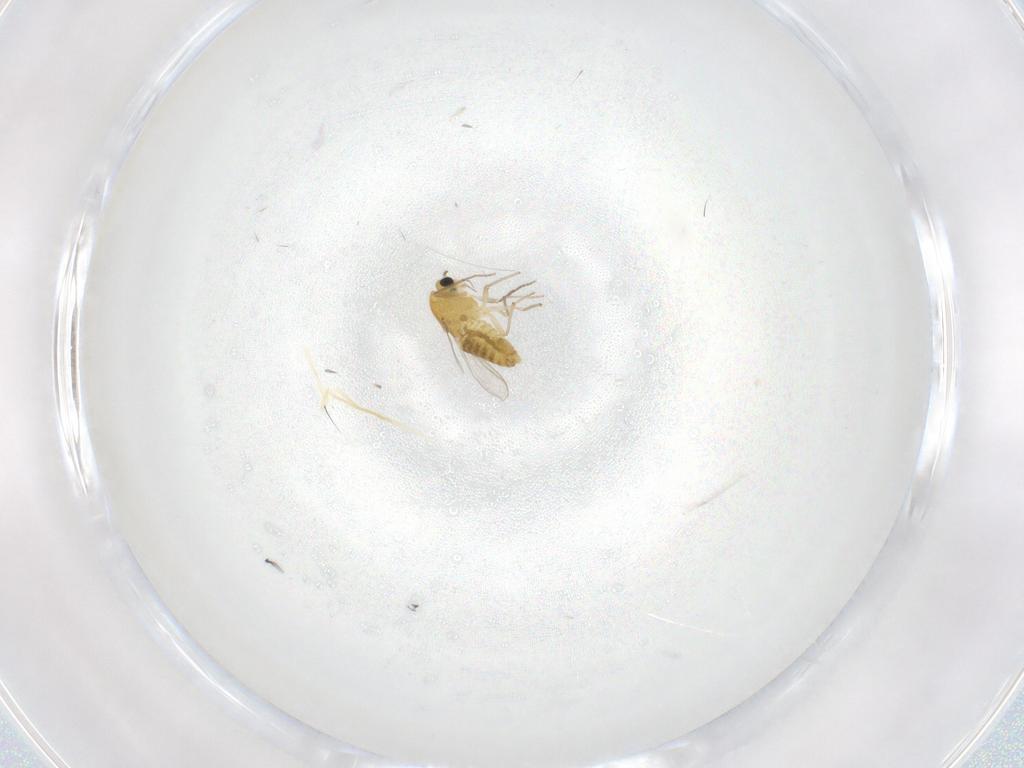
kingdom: Animalia
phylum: Arthropoda
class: Insecta
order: Diptera
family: Chironomidae
